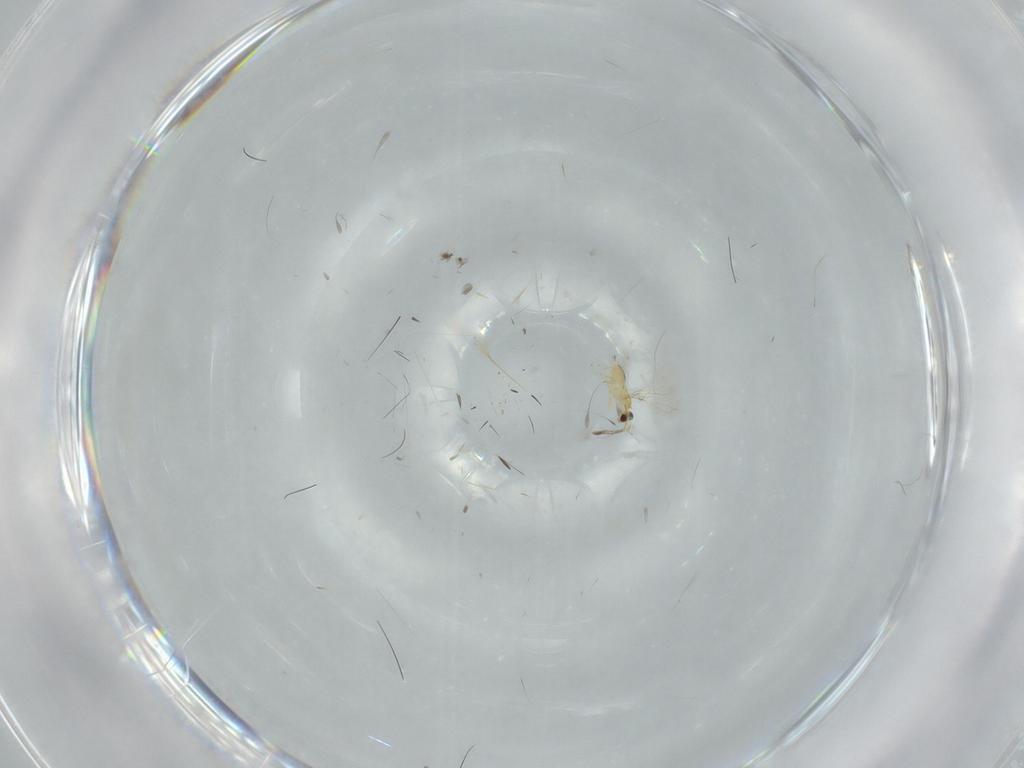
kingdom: Animalia
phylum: Arthropoda
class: Insecta
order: Hymenoptera
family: Mymaridae
